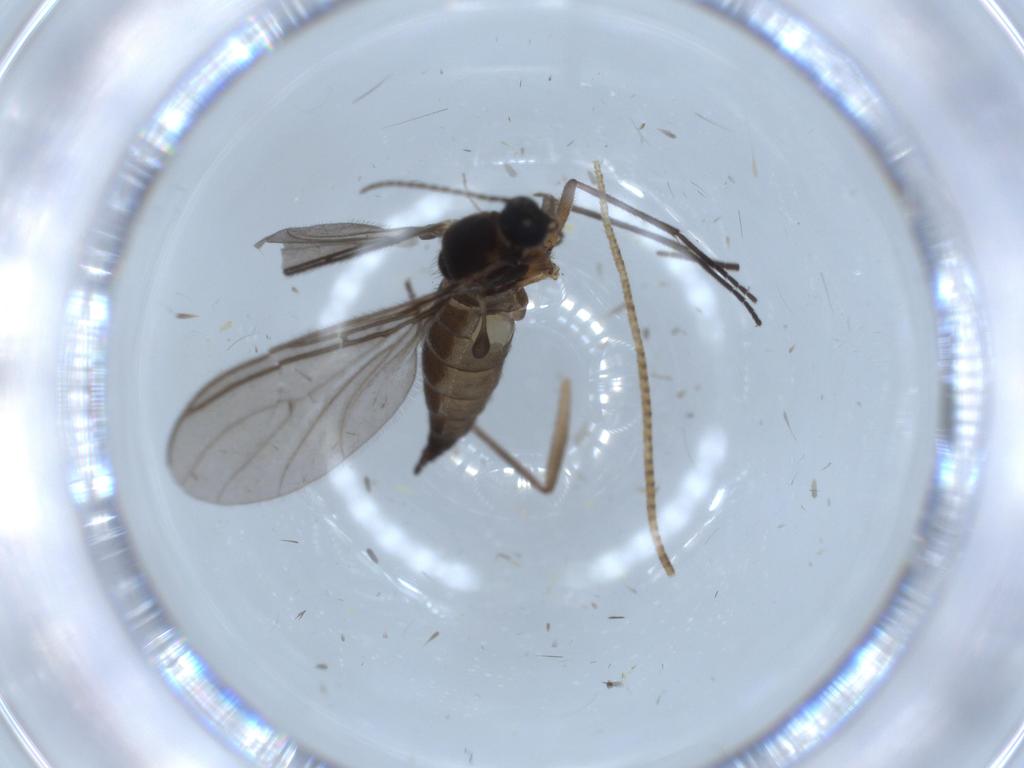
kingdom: Animalia
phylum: Arthropoda
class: Insecta
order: Diptera
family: Sciaridae
